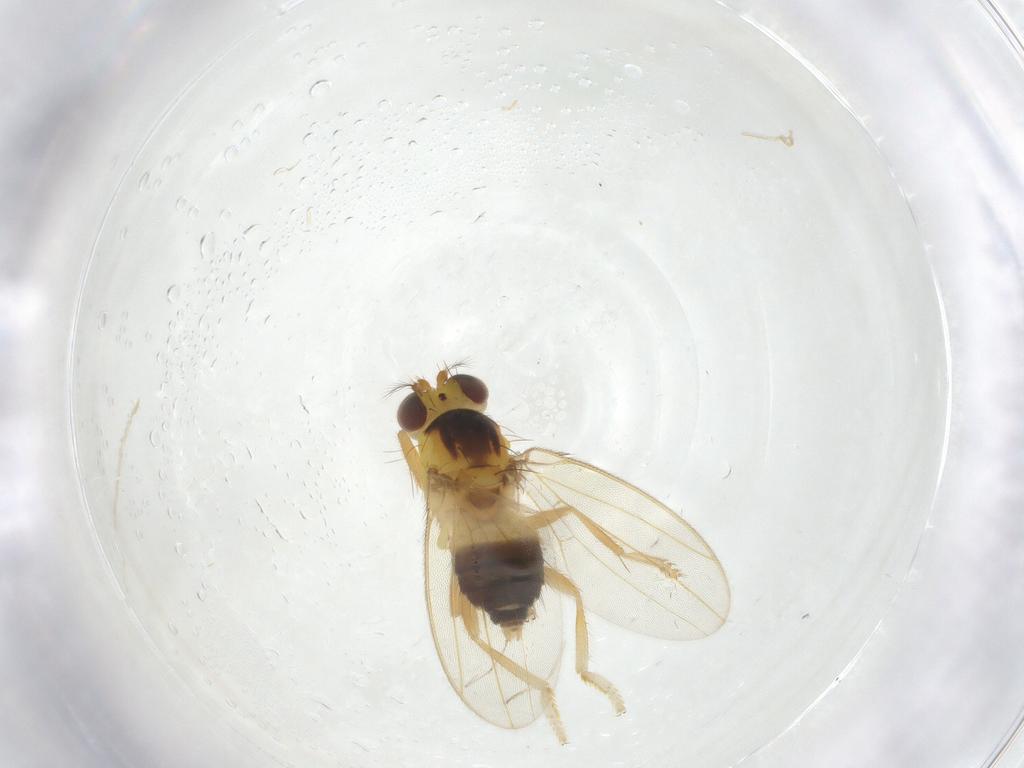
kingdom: Animalia
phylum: Arthropoda
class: Insecta
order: Diptera
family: Periscelididae
